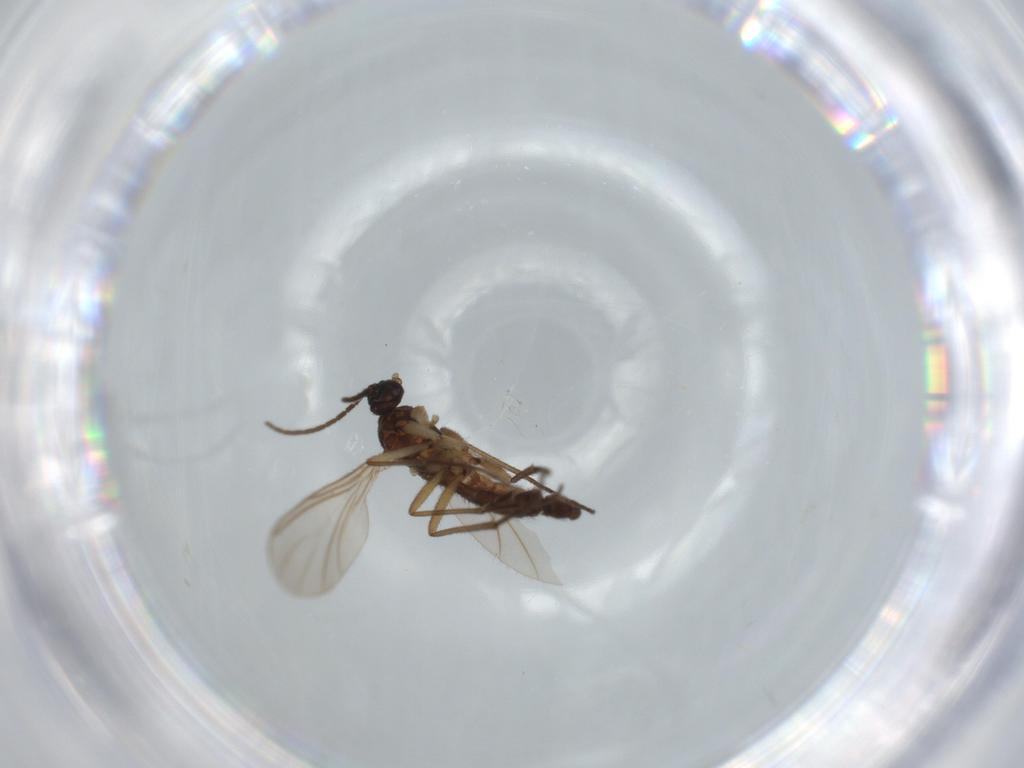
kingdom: Animalia
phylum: Arthropoda
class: Insecta
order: Diptera
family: Sciaridae
